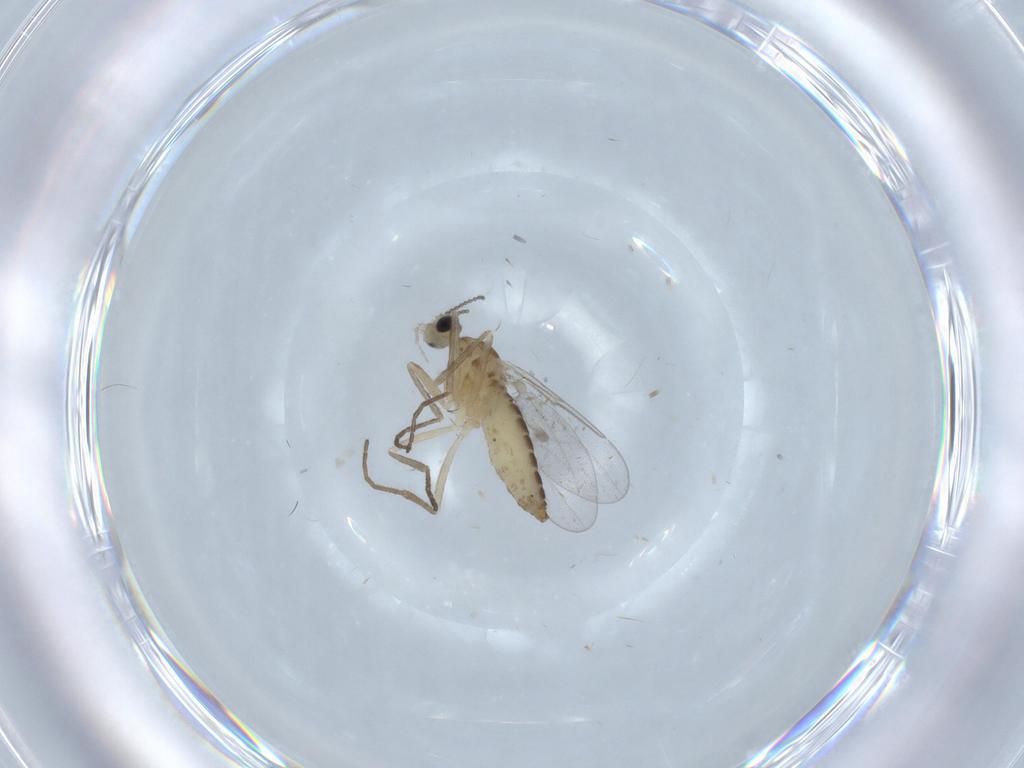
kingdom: Animalia
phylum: Arthropoda
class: Insecta
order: Diptera
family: Cecidomyiidae
